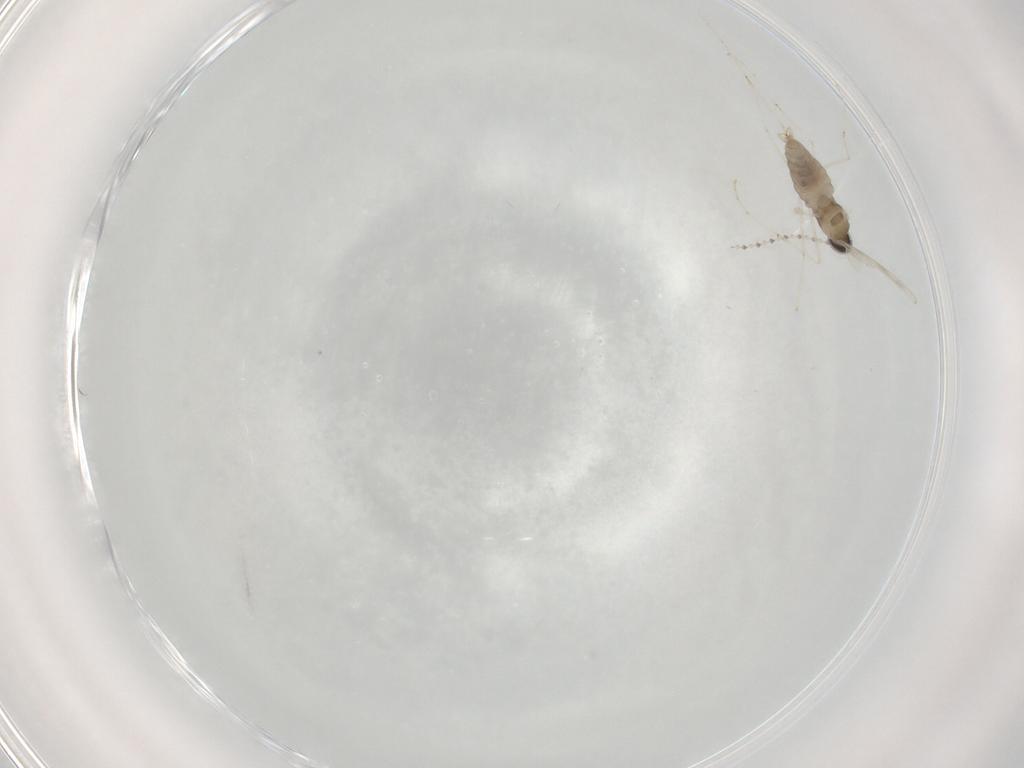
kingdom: Animalia
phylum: Arthropoda
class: Insecta
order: Diptera
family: Cecidomyiidae
